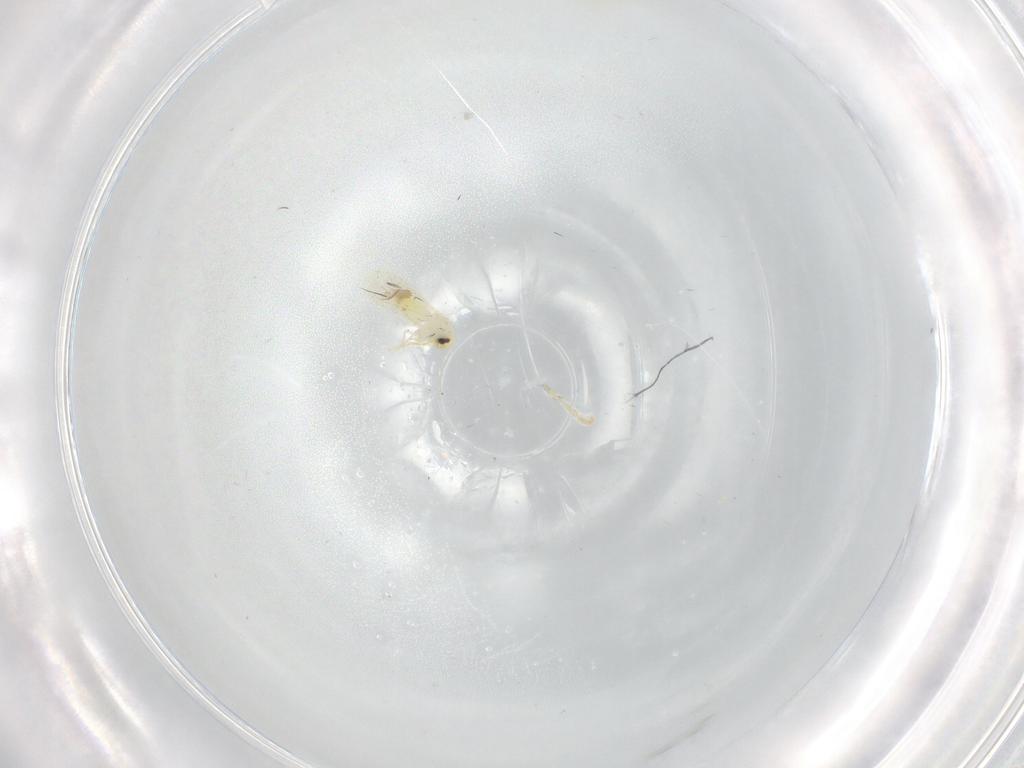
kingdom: Animalia
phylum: Arthropoda
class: Insecta
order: Hemiptera
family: Aleyrodidae
